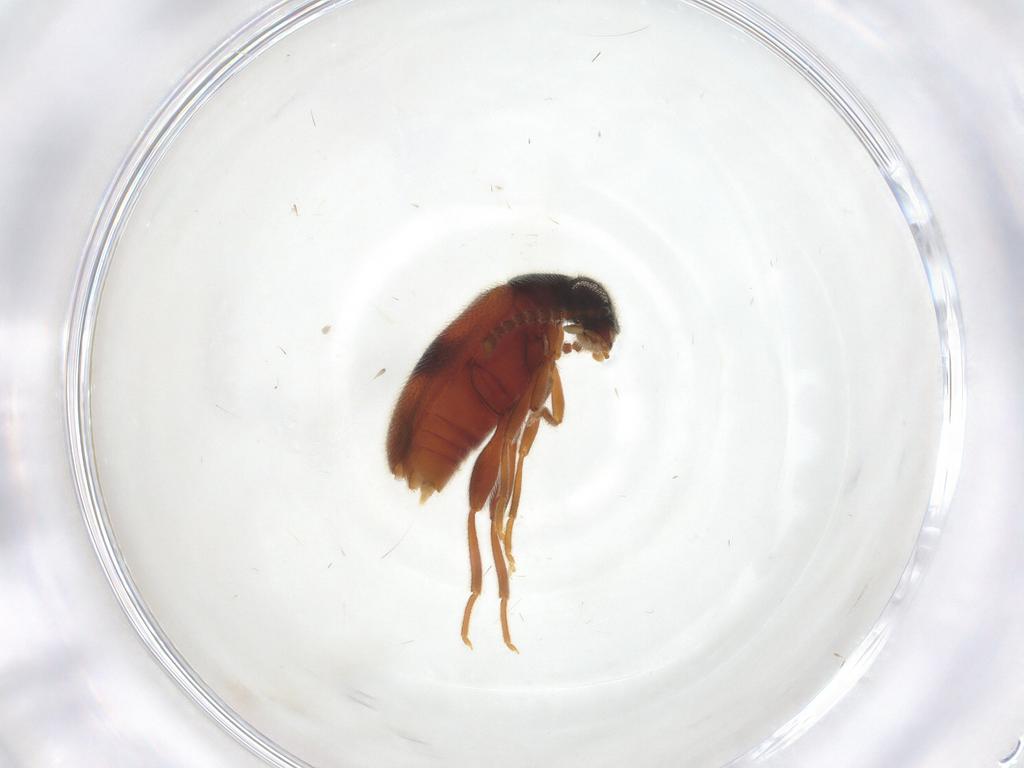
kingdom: Animalia
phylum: Arthropoda
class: Insecta
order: Coleoptera
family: Aderidae
